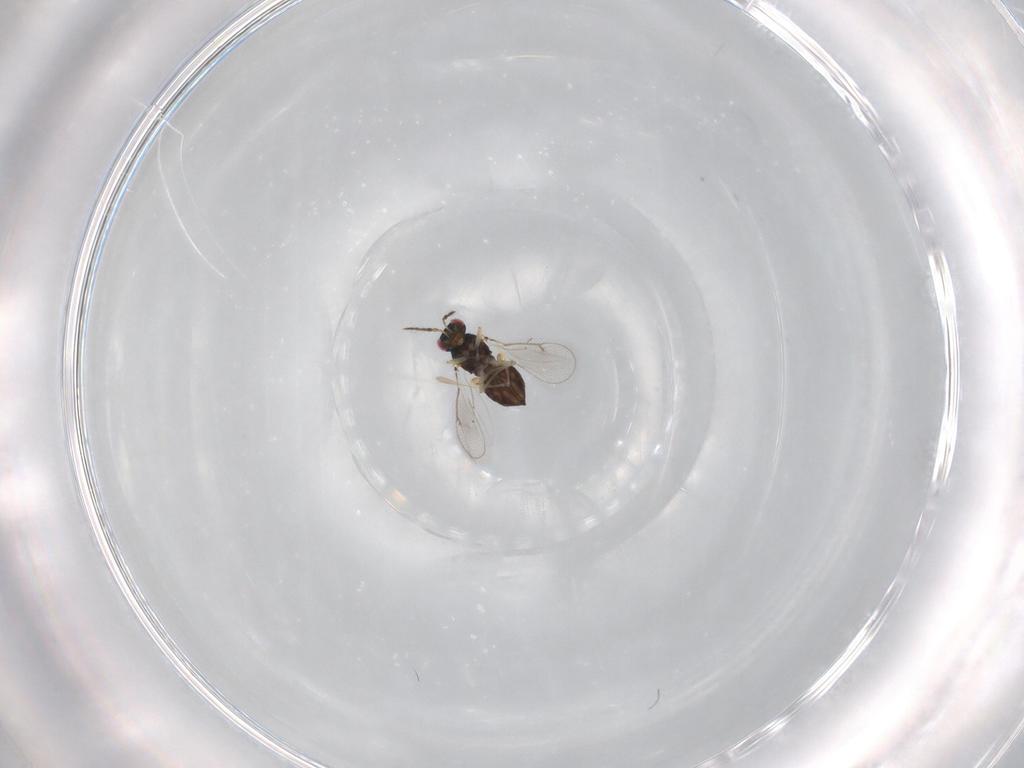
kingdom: Animalia
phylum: Arthropoda
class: Insecta
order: Hymenoptera
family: Eulophidae
